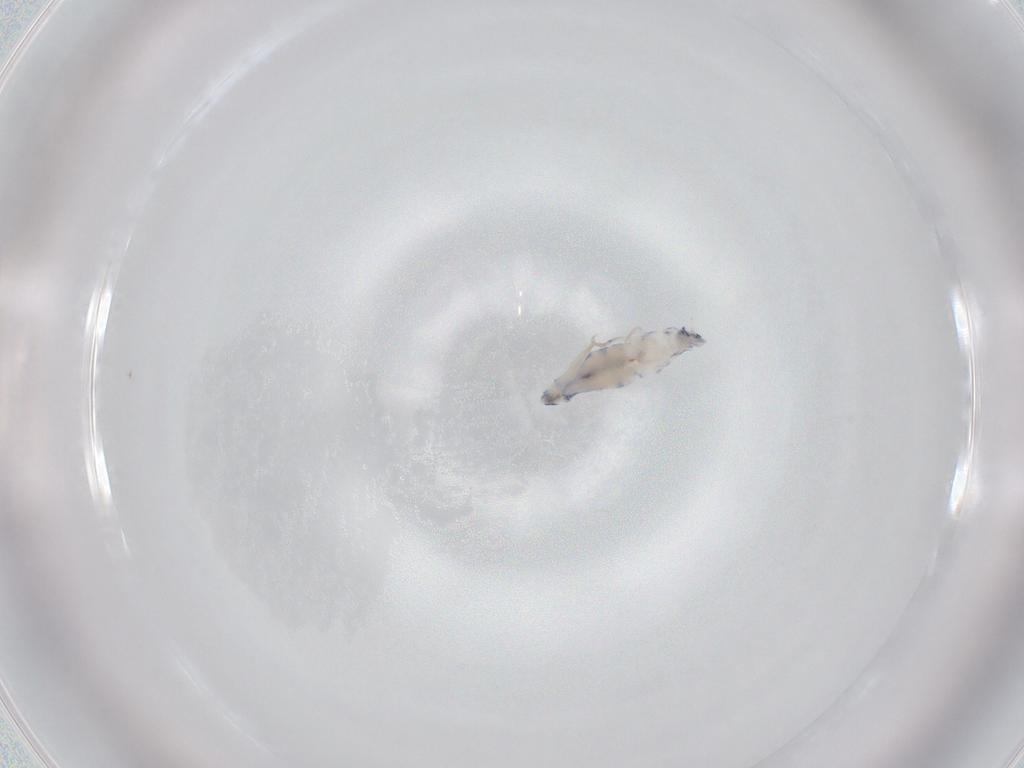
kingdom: Animalia
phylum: Arthropoda
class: Collembola
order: Entomobryomorpha
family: Entomobryidae
